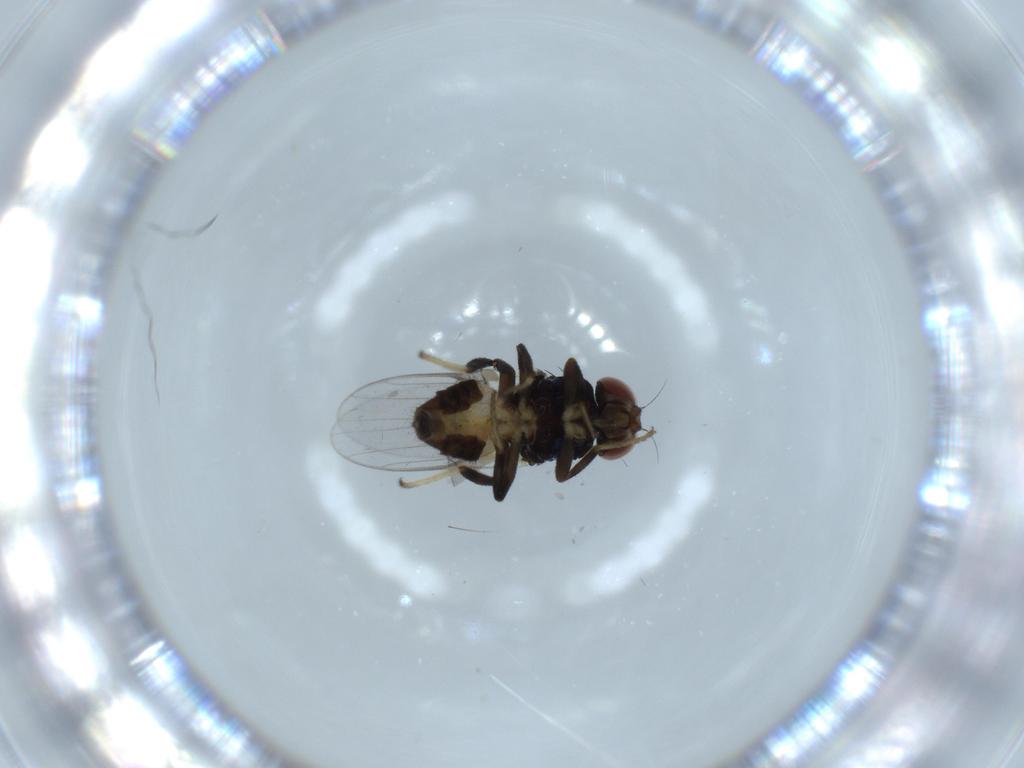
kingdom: Animalia
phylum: Arthropoda
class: Insecta
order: Diptera
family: Chloropidae
